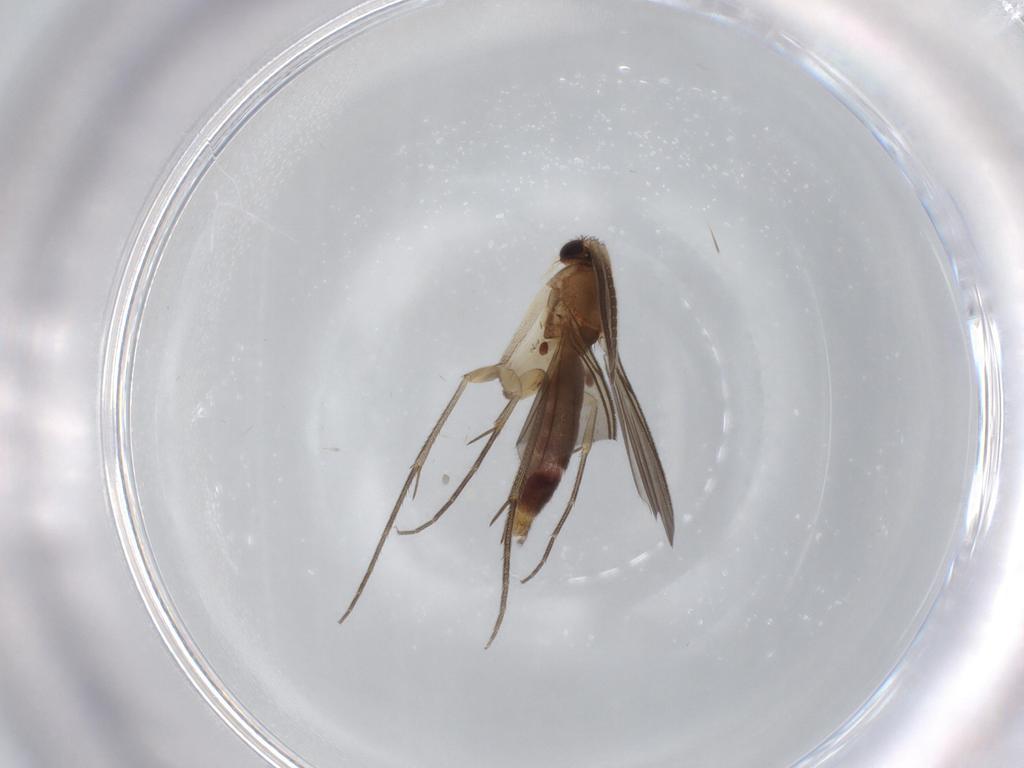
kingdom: Animalia
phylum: Arthropoda
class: Insecta
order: Diptera
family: Mycetophilidae
